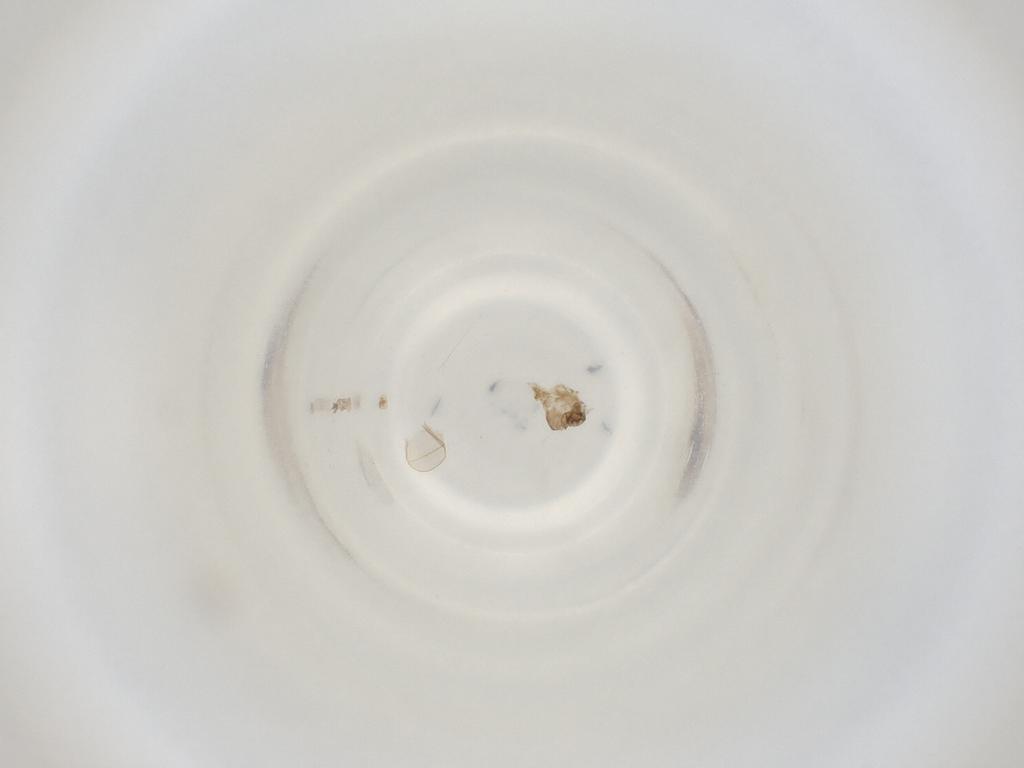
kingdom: Animalia
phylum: Arthropoda
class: Insecta
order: Diptera
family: Cecidomyiidae
